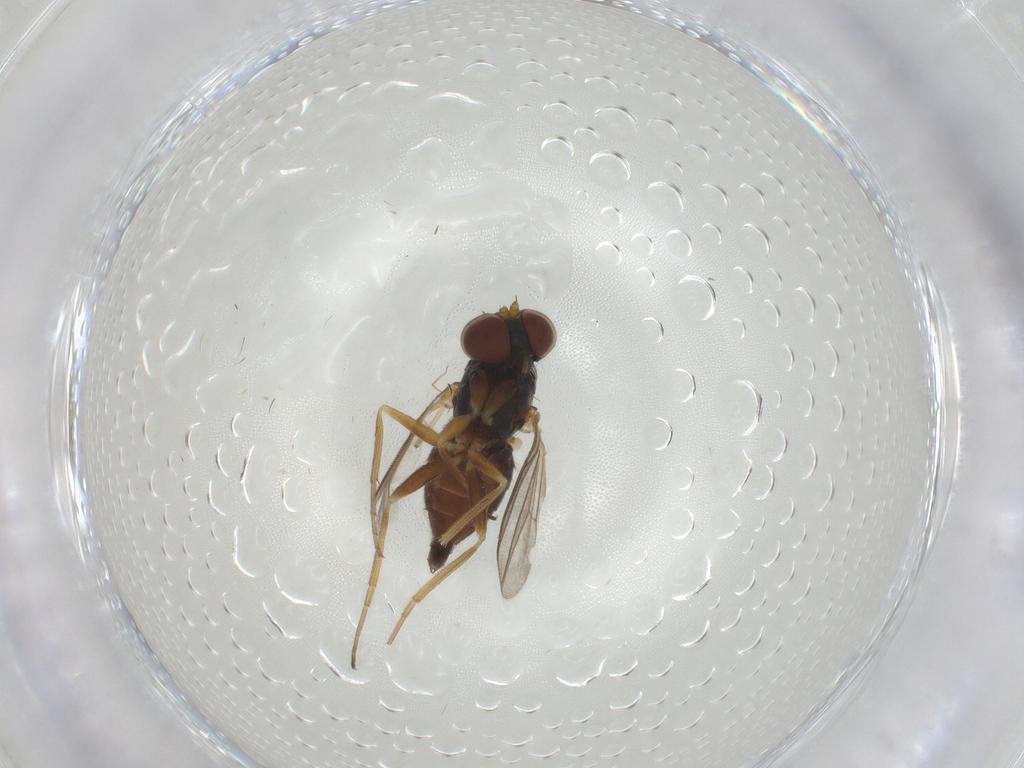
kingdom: Animalia
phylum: Arthropoda
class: Insecta
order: Diptera
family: Dolichopodidae
